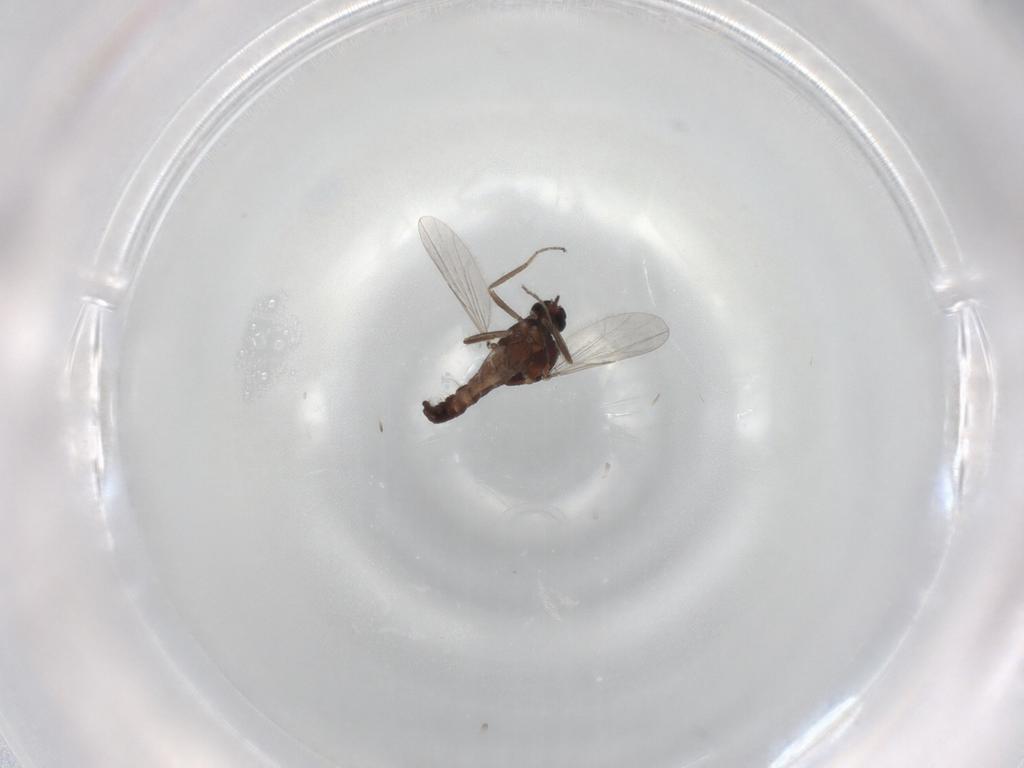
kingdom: Animalia
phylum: Arthropoda
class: Insecta
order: Diptera
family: Ceratopogonidae
